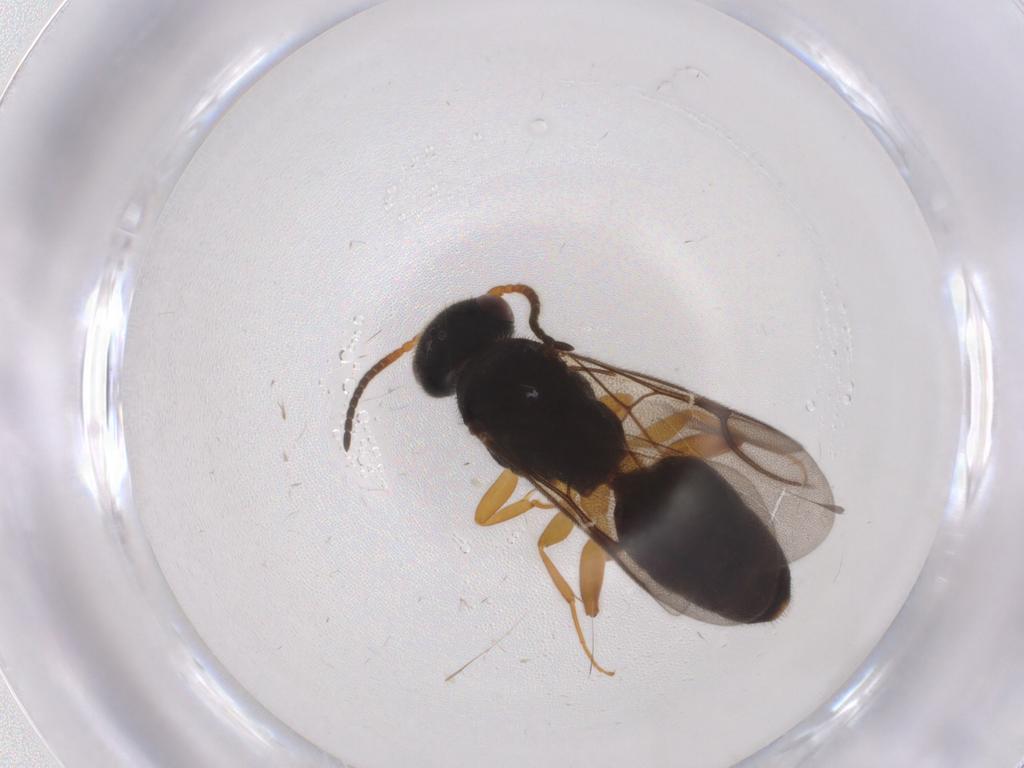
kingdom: Animalia
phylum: Arthropoda
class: Insecta
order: Hymenoptera
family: Bethylidae
